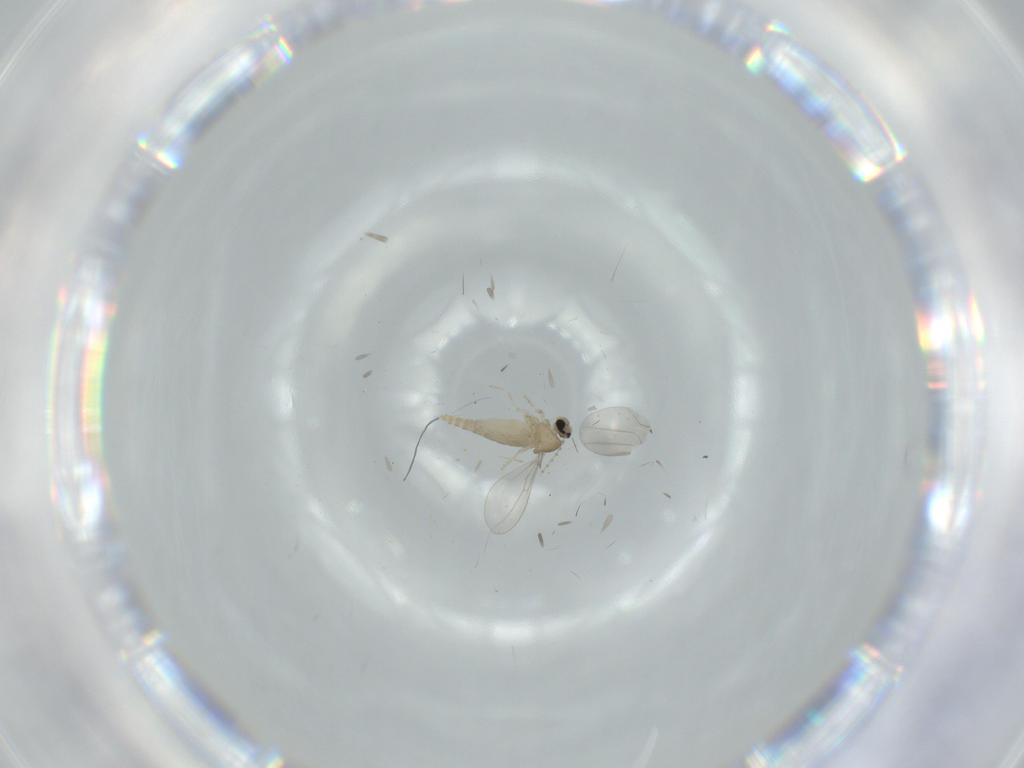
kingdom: Animalia
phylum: Arthropoda
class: Insecta
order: Diptera
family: Cecidomyiidae
